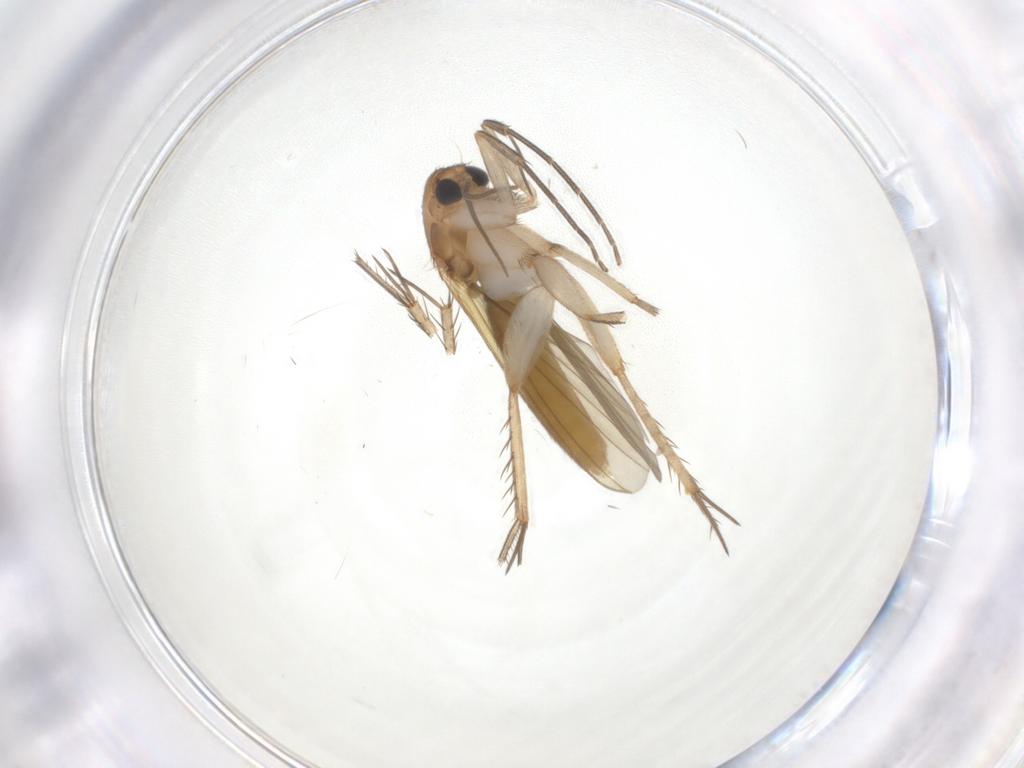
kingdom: Animalia
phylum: Arthropoda
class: Insecta
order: Diptera
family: Mycetophilidae
